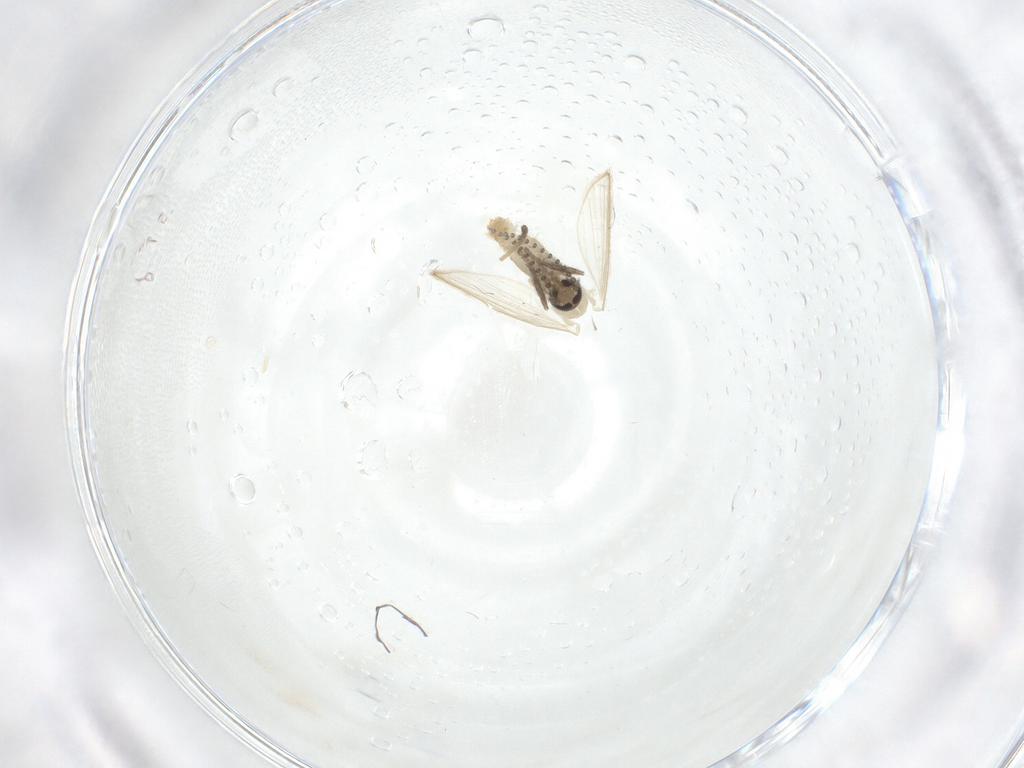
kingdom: Animalia
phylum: Arthropoda
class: Insecta
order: Diptera
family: Psychodidae
